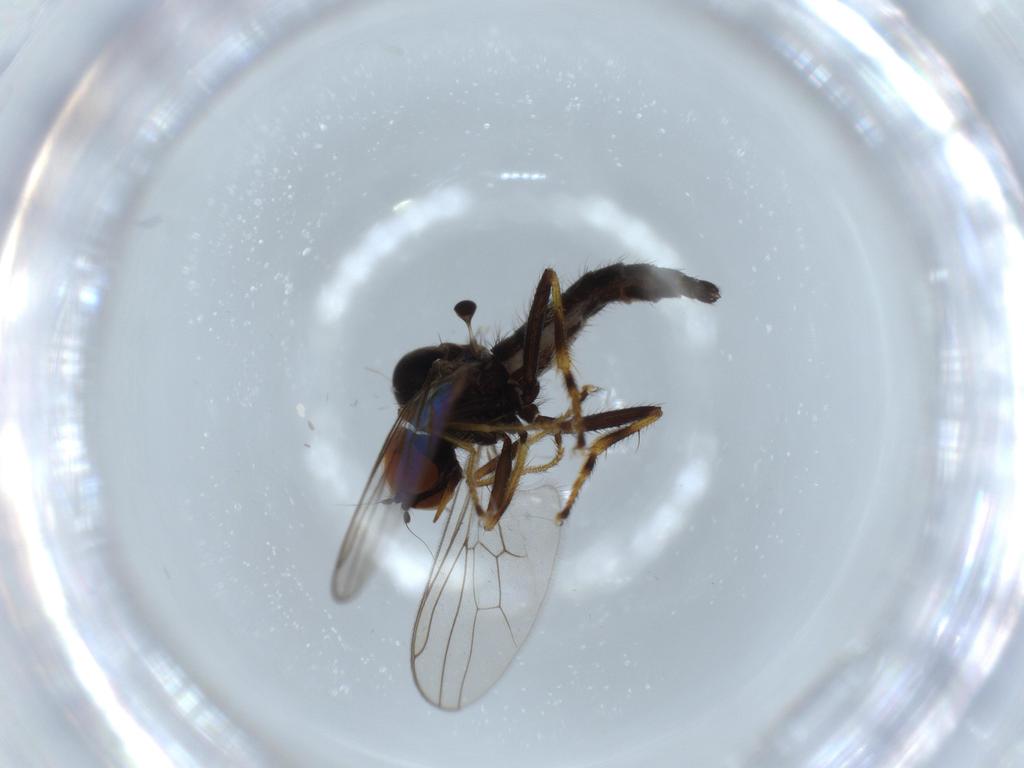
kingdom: Animalia
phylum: Arthropoda
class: Insecta
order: Diptera
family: Hybotidae
